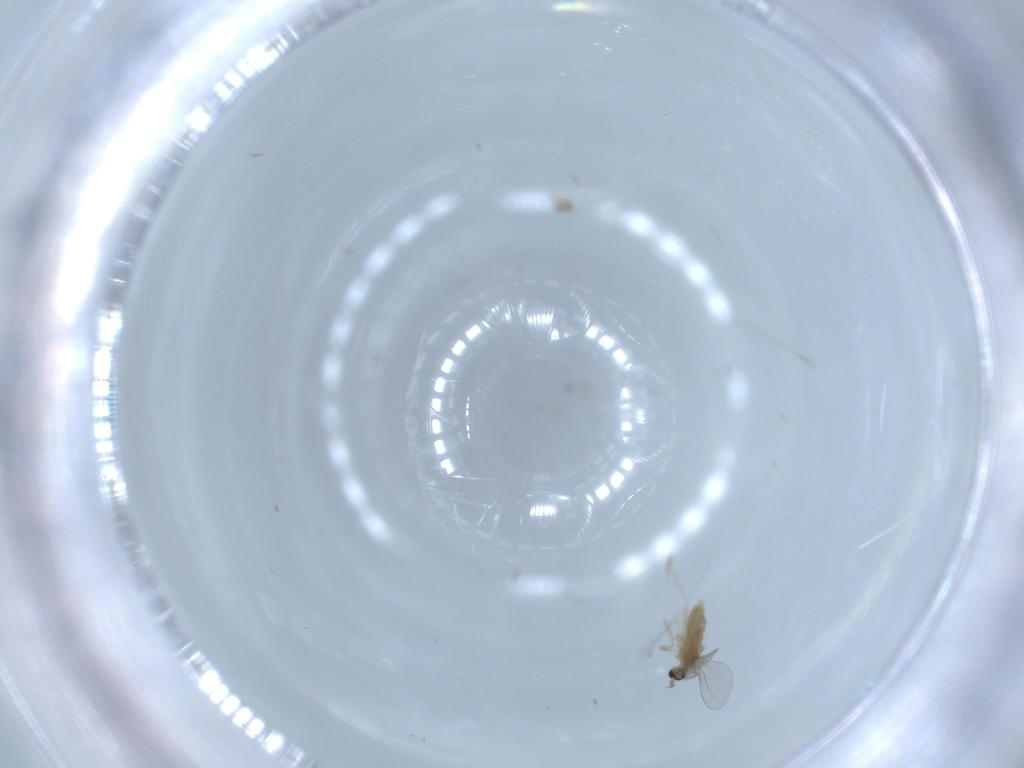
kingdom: Animalia
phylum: Arthropoda
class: Insecta
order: Diptera
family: Cecidomyiidae
